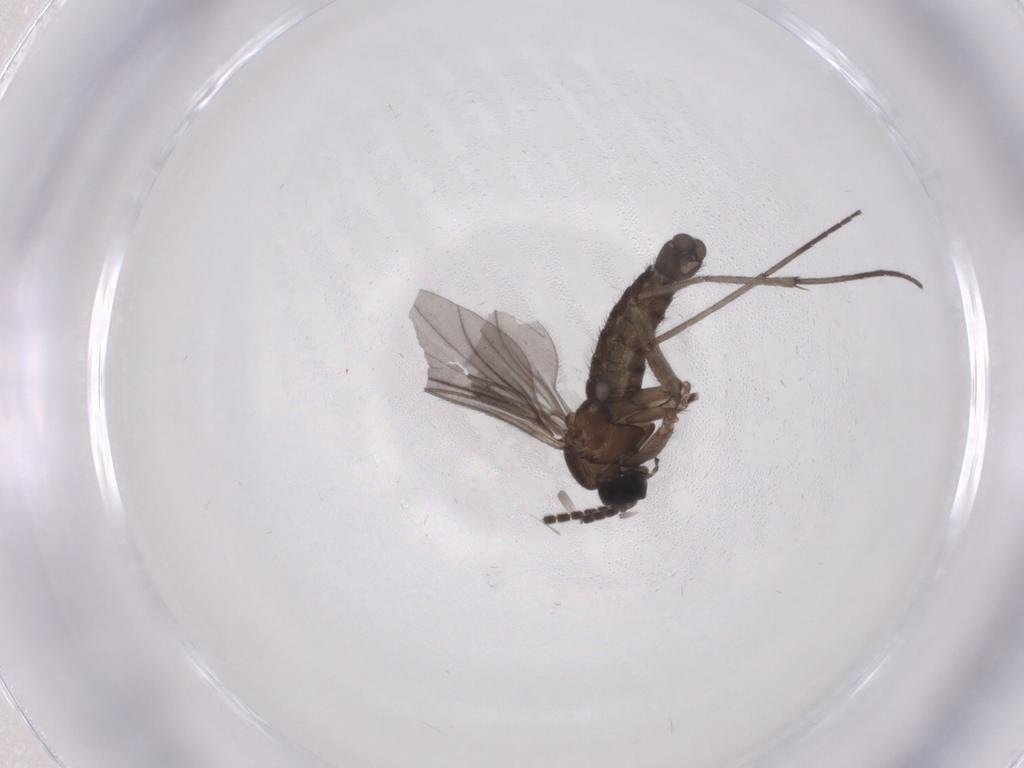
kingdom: Animalia
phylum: Arthropoda
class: Insecta
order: Diptera
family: Sciaridae
